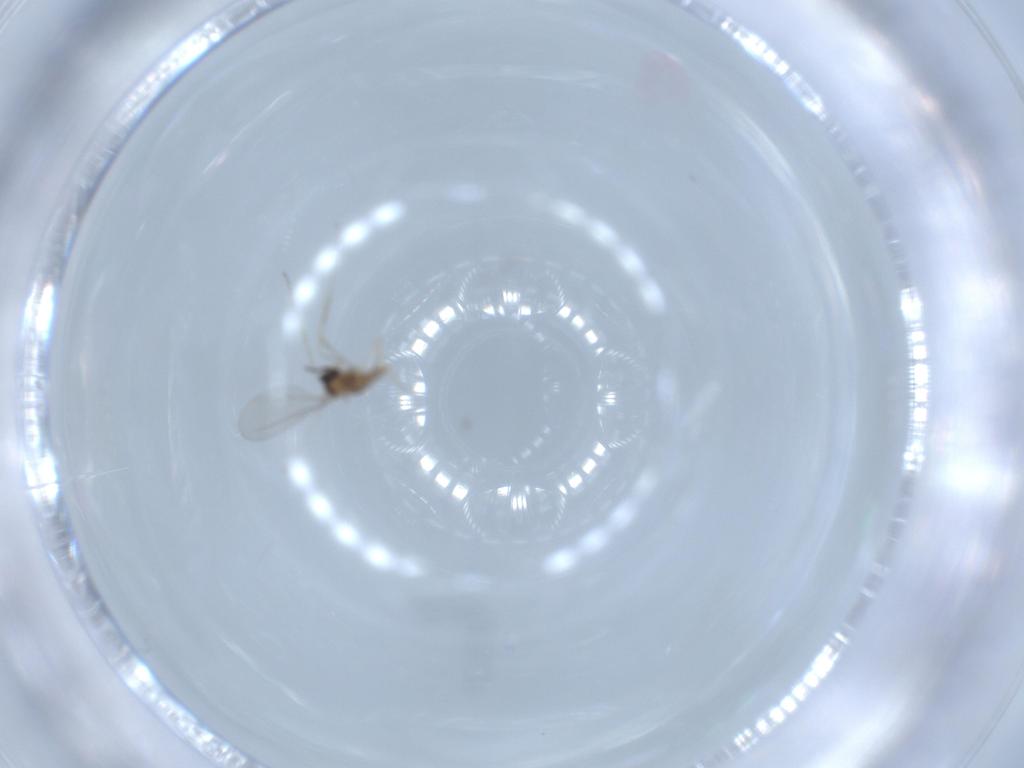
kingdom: Animalia
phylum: Arthropoda
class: Insecta
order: Diptera
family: Cecidomyiidae
